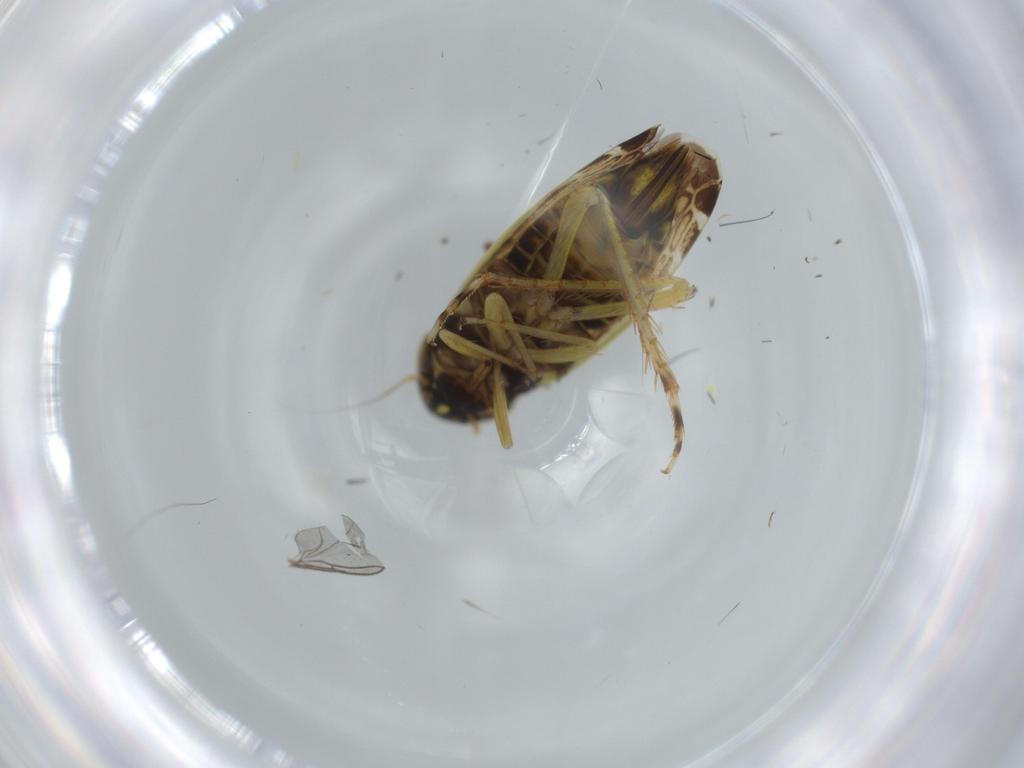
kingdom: Animalia
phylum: Arthropoda
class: Insecta
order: Hemiptera
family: Cicadellidae
